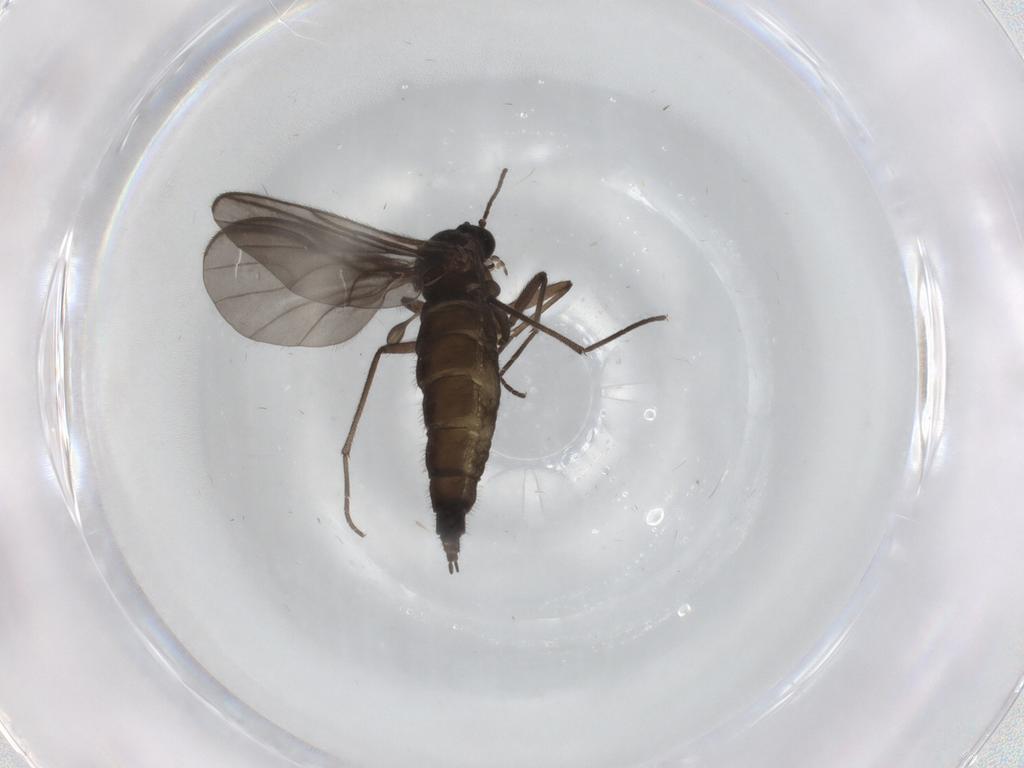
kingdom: Animalia
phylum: Arthropoda
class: Insecta
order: Diptera
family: Sciaridae
